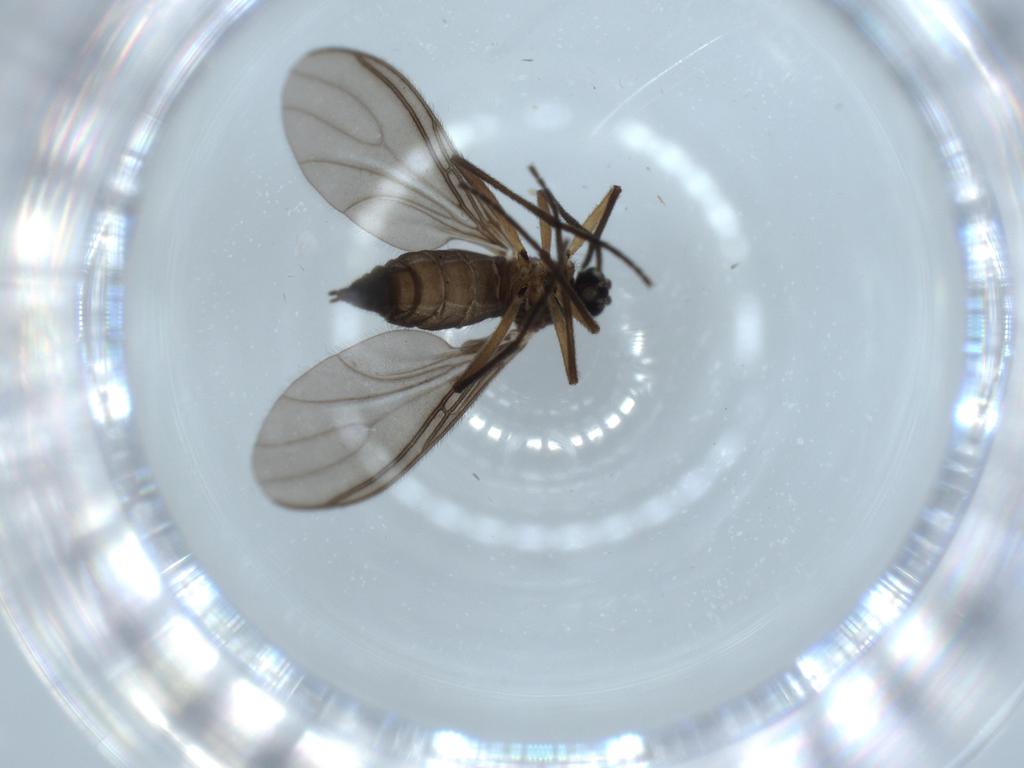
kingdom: Animalia
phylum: Arthropoda
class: Insecta
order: Diptera
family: Sciaridae
